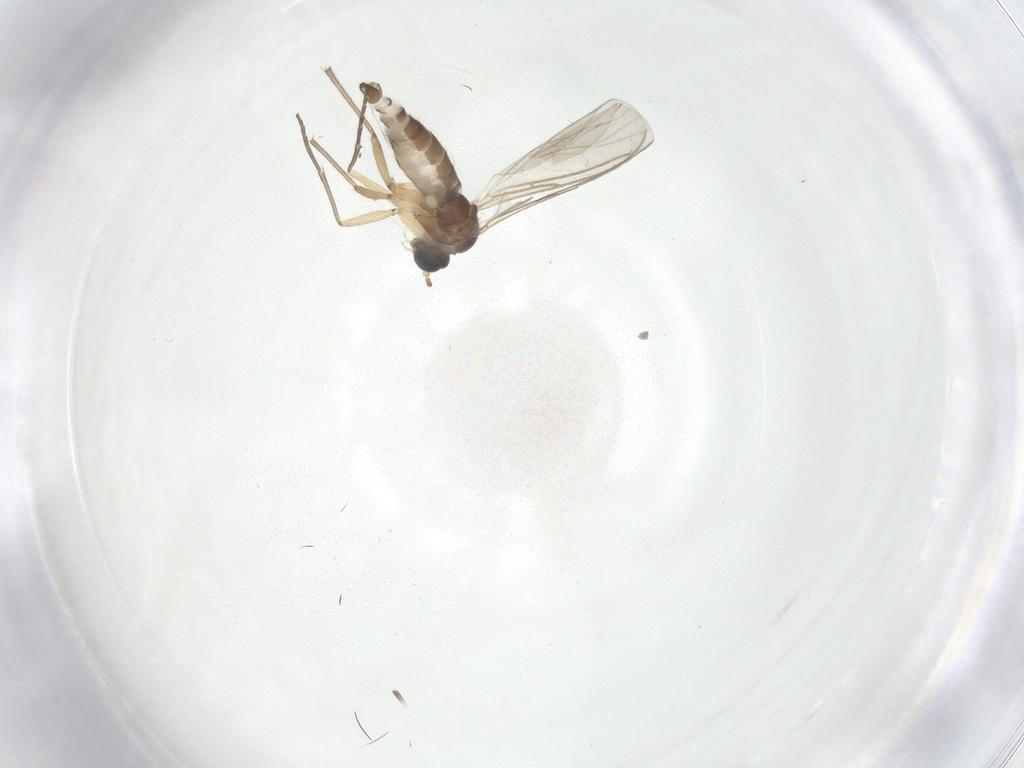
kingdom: Animalia
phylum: Arthropoda
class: Insecta
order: Diptera
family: Sciaridae
